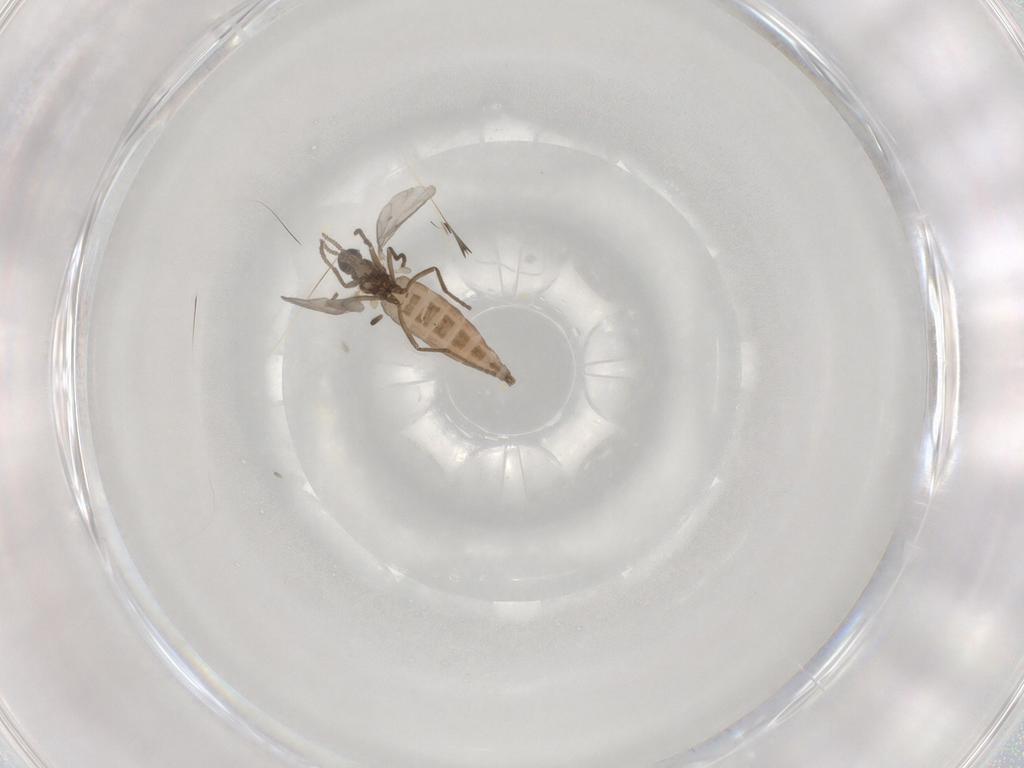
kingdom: Animalia
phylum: Arthropoda
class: Insecta
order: Diptera
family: Cecidomyiidae
